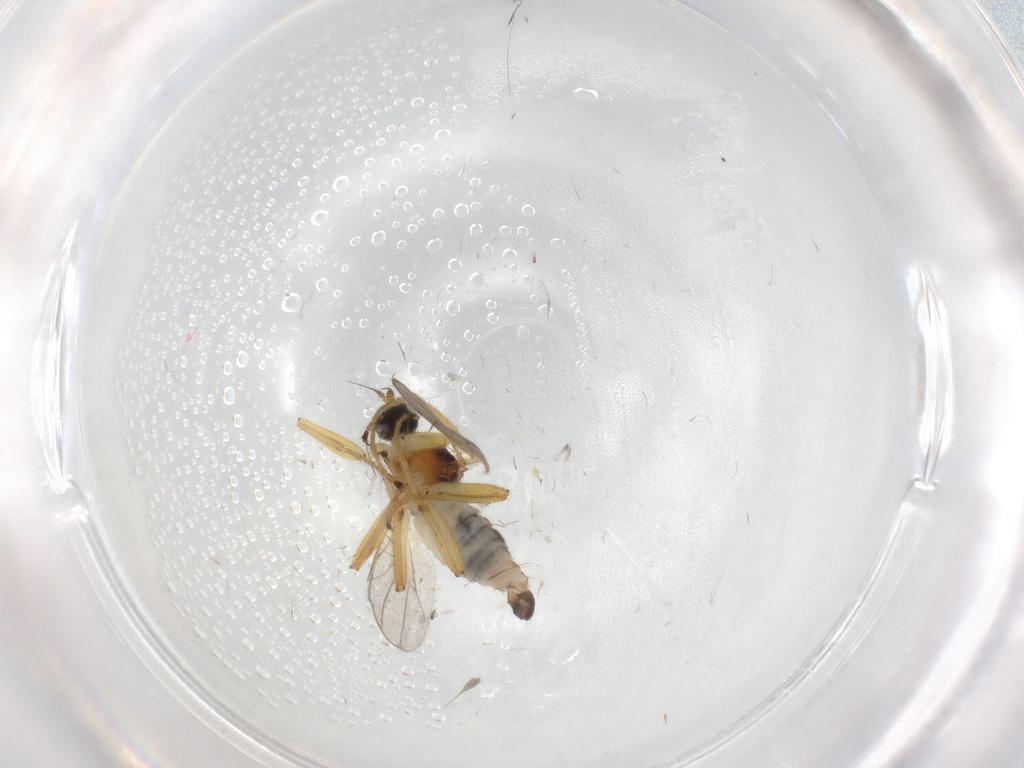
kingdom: Animalia
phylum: Arthropoda
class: Insecta
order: Diptera
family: Hybotidae
